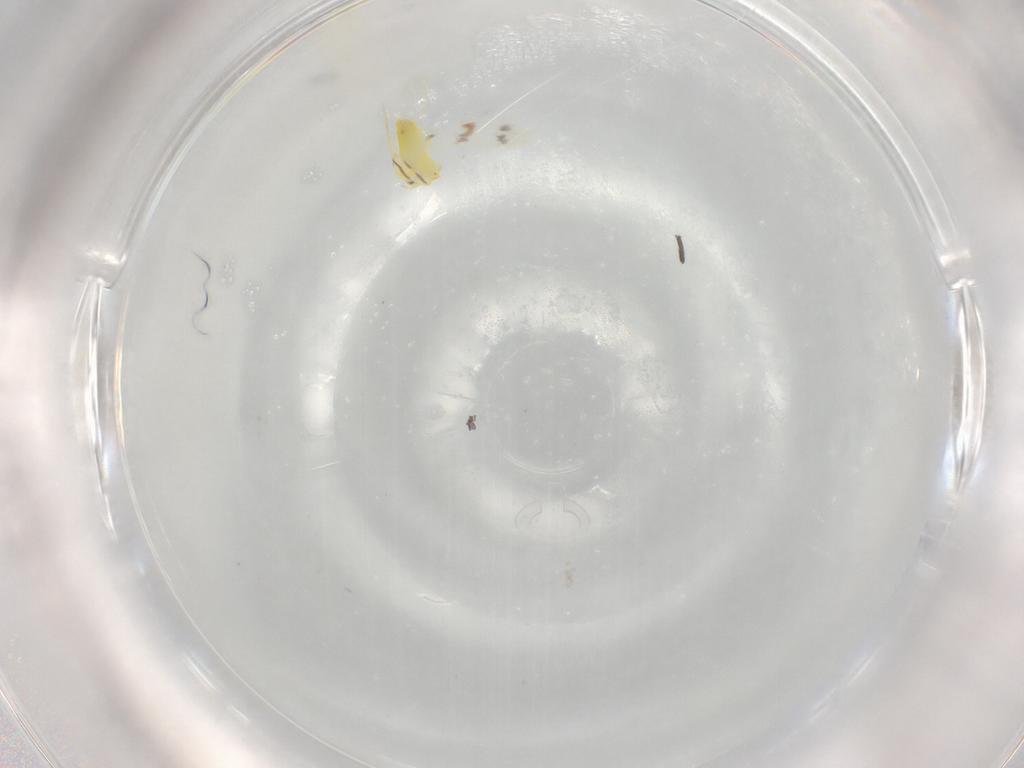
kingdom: Animalia
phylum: Arthropoda
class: Insecta
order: Hemiptera
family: Aleyrodidae
